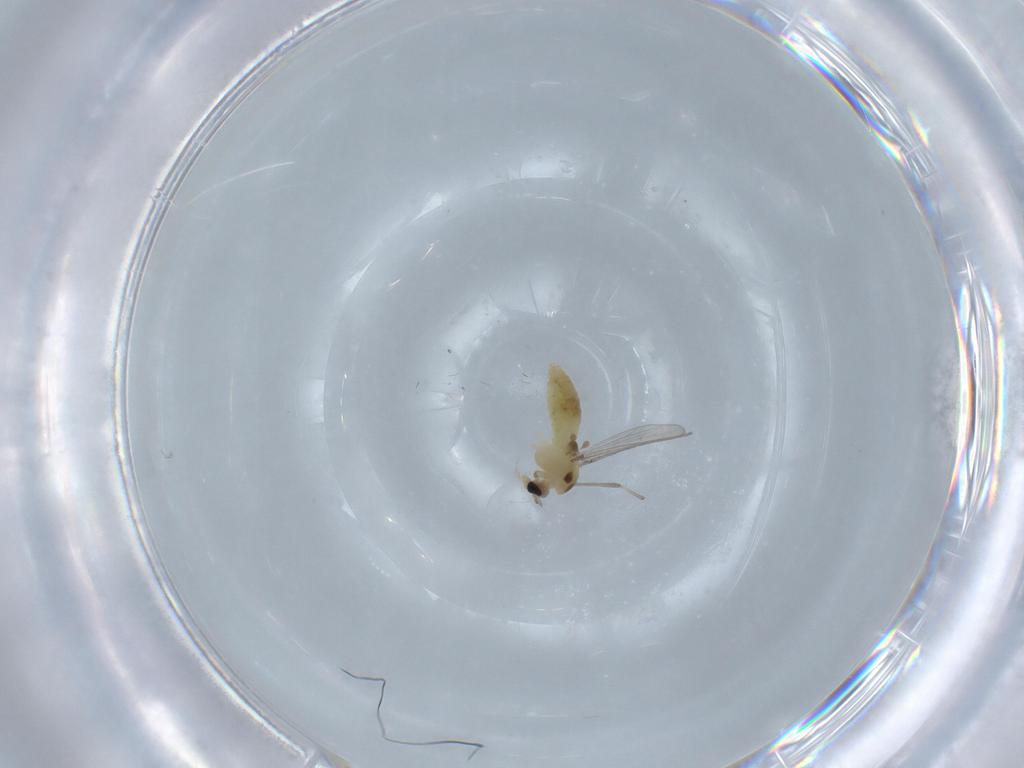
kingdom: Animalia
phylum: Arthropoda
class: Insecta
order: Diptera
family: Chironomidae
